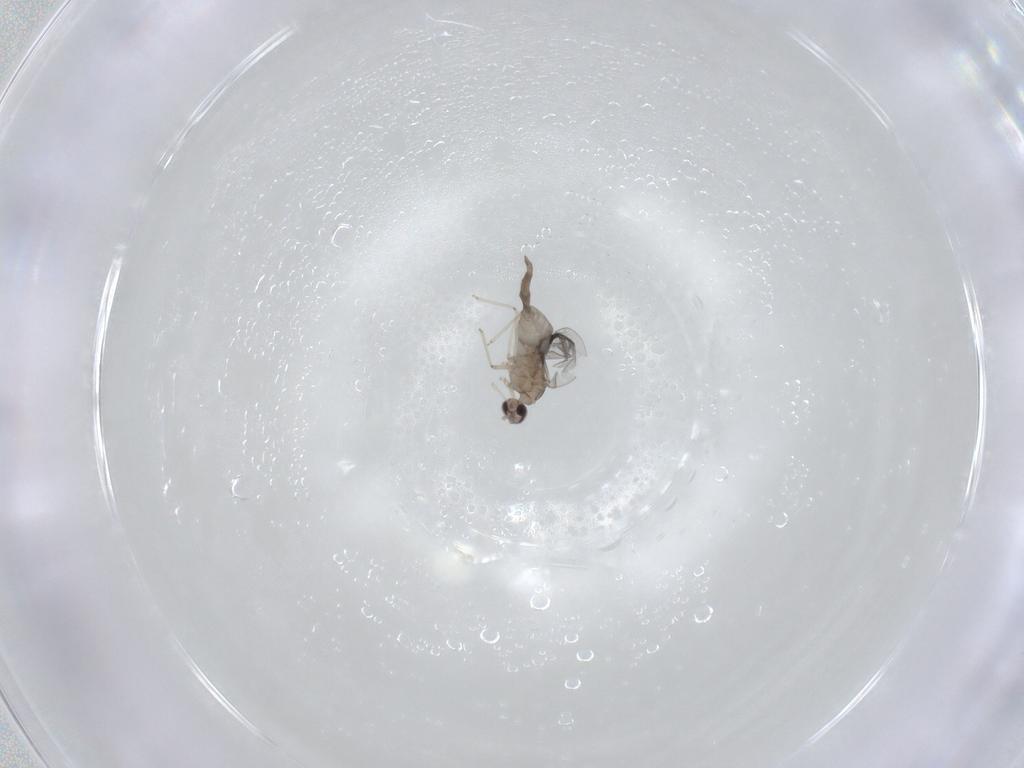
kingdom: Animalia
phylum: Arthropoda
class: Insecta
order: Diptera
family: Cecidomyiidae
